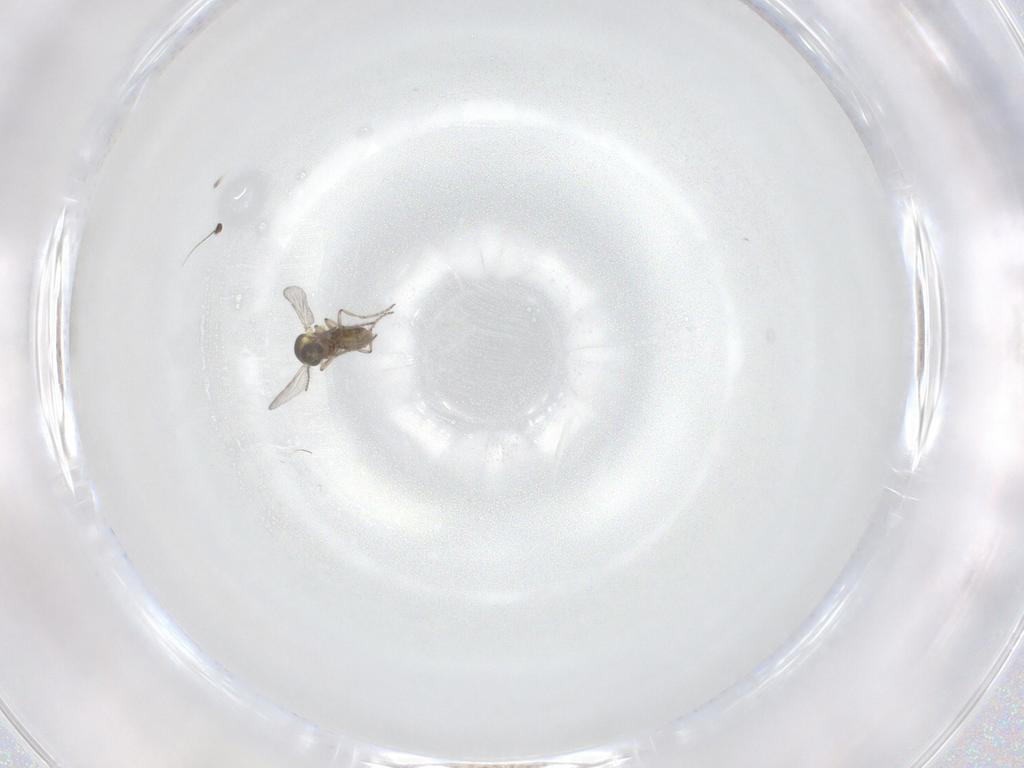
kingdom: Animalia
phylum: Arthropoda
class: Insecta
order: Diptera
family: Ceratopogonidae
